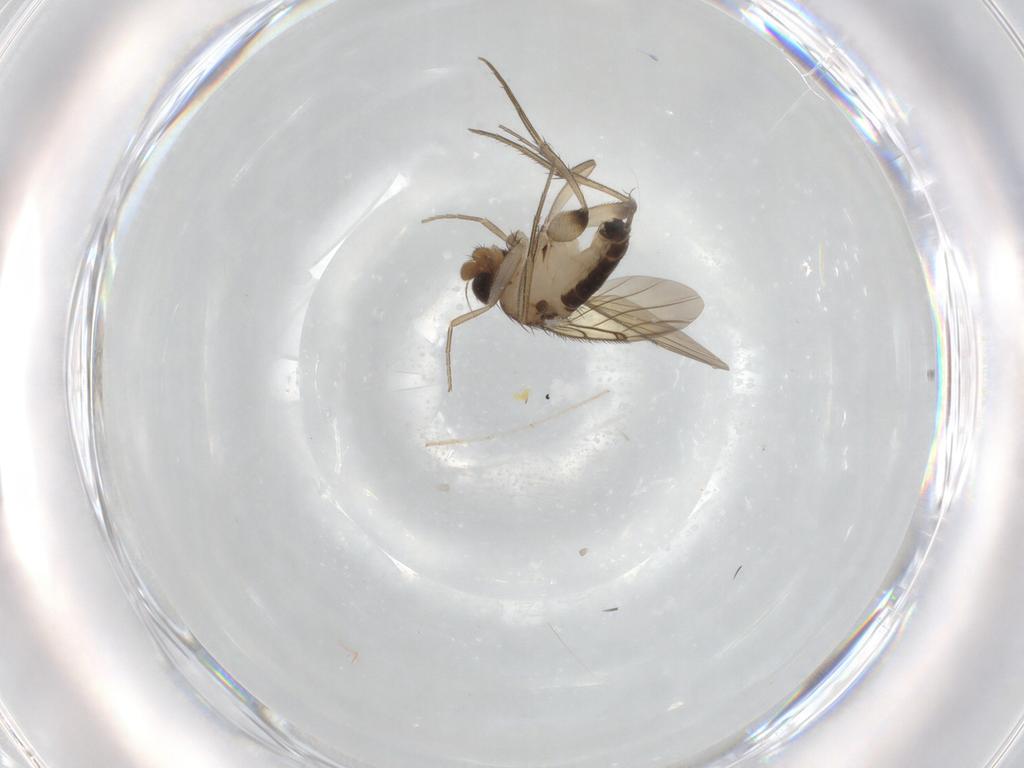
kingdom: Animalia
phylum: Arthropoda
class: Insecta
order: Diptera
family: Phoridae
